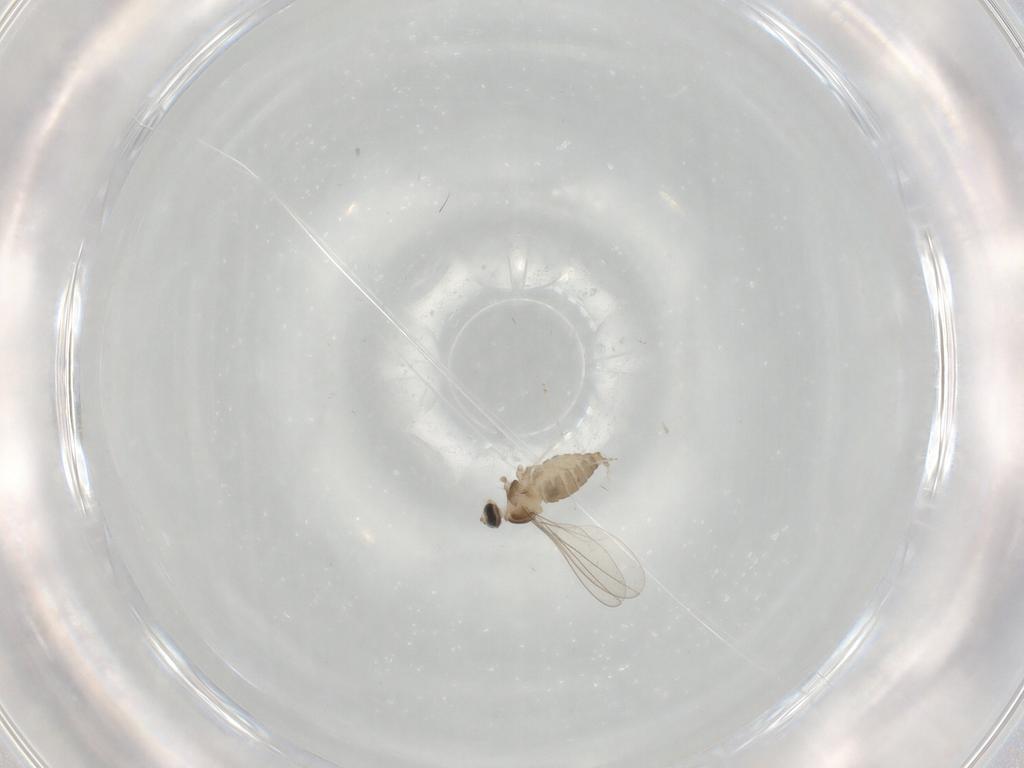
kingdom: Animalia
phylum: Arthropoda
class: Insecta
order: Diptera
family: Cecidomyiidae
